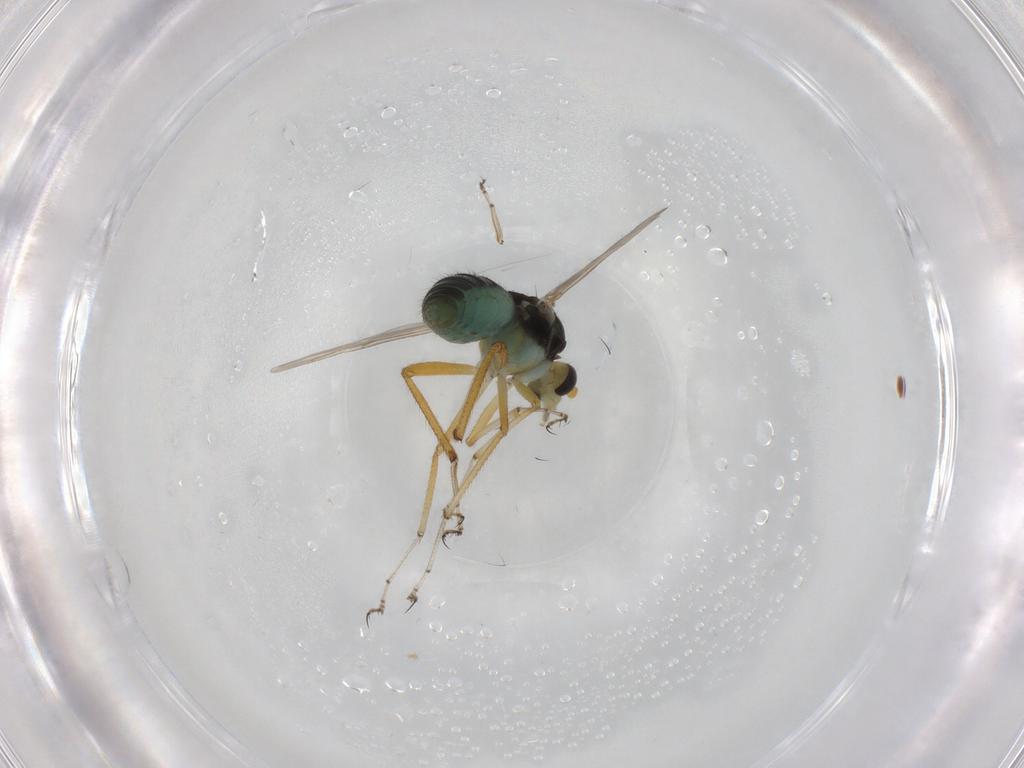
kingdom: Animalia
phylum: Arthropoda
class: Insecta
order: Diptera
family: Ceratopogonidae
